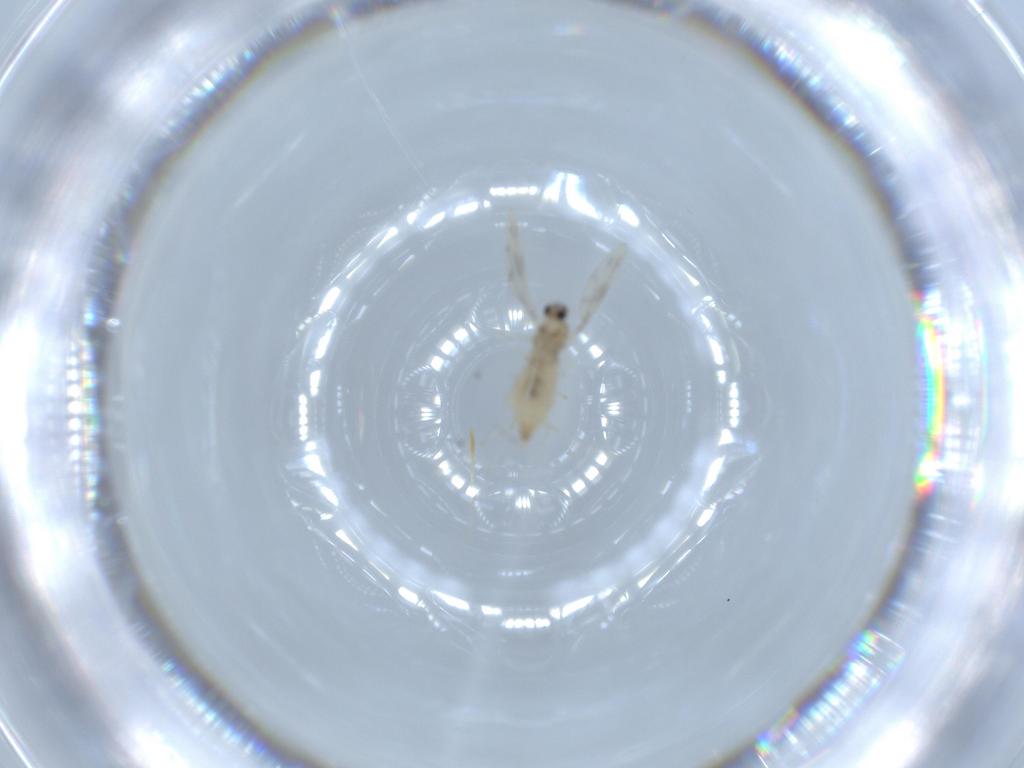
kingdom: Animalia
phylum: Arthropoda
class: Insecta
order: Diptera
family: Cecidomyiidae
